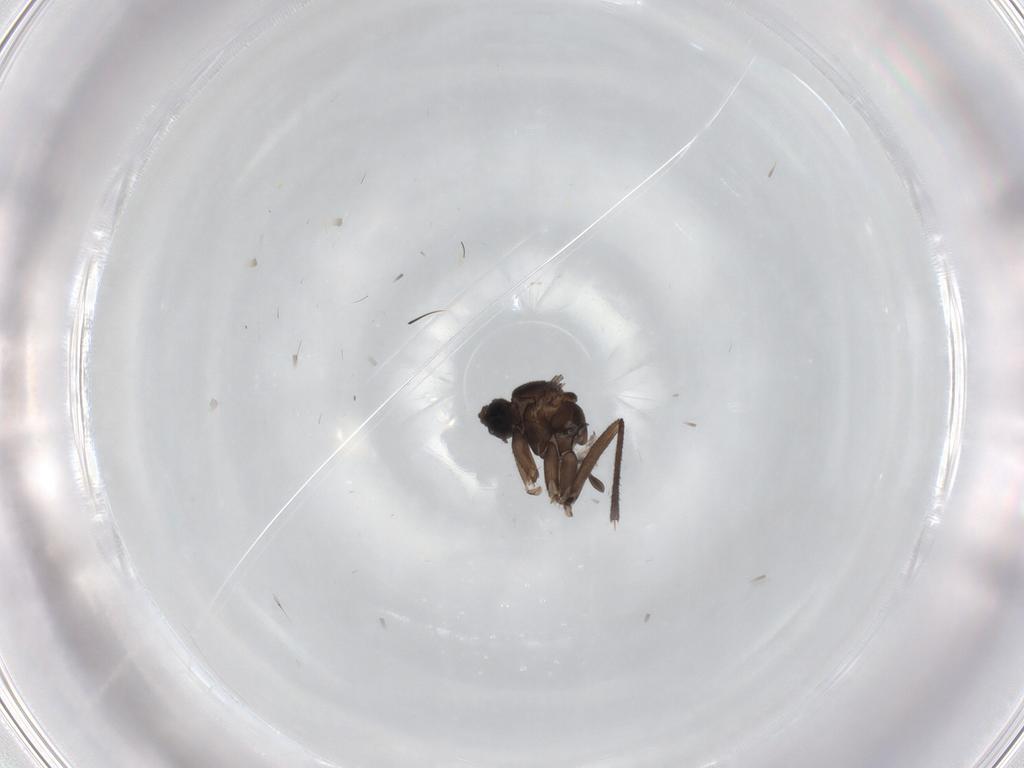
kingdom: Animalia
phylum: Arthropoda
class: Insecta
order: Diptera
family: Sciaridae
